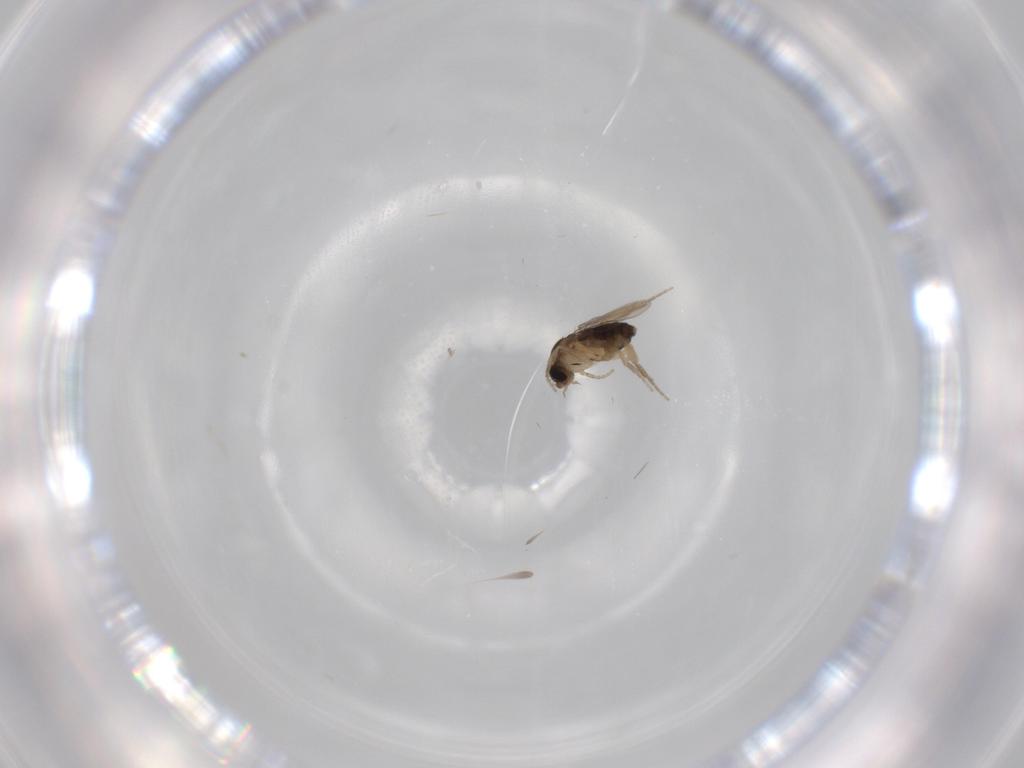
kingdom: Animalia
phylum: Arthropoda
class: Insecta
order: Diptera
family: Phoridae
